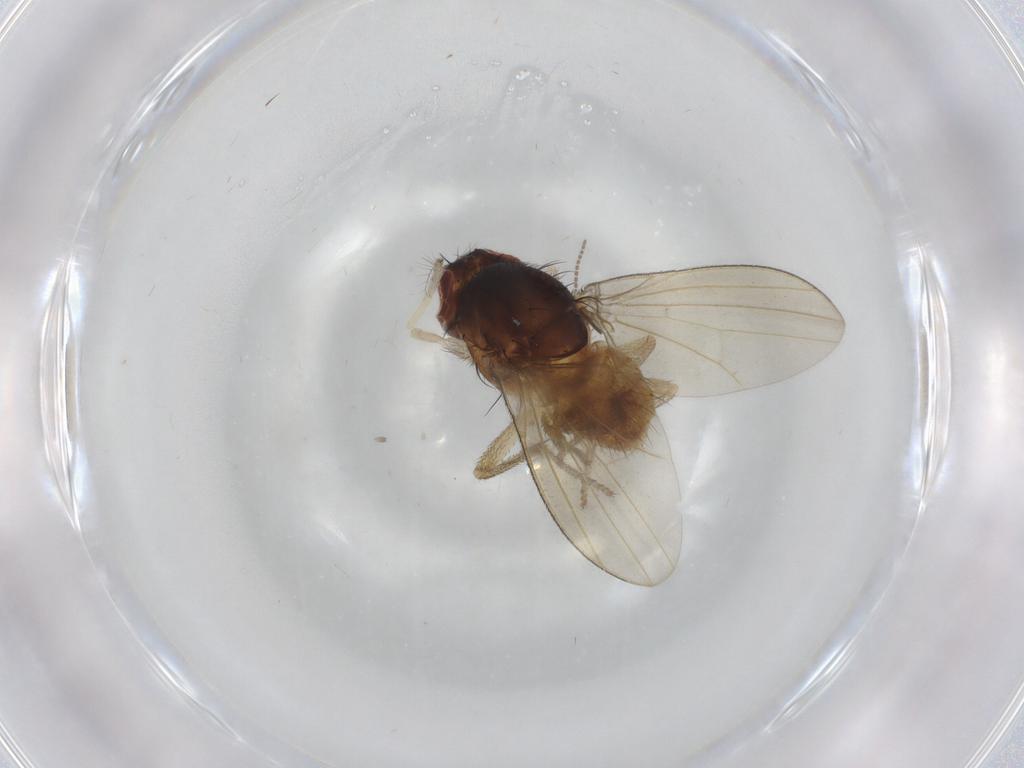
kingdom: Animalia
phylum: Arthropoda
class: Insecta
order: Diptera
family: Lauxaniidae
